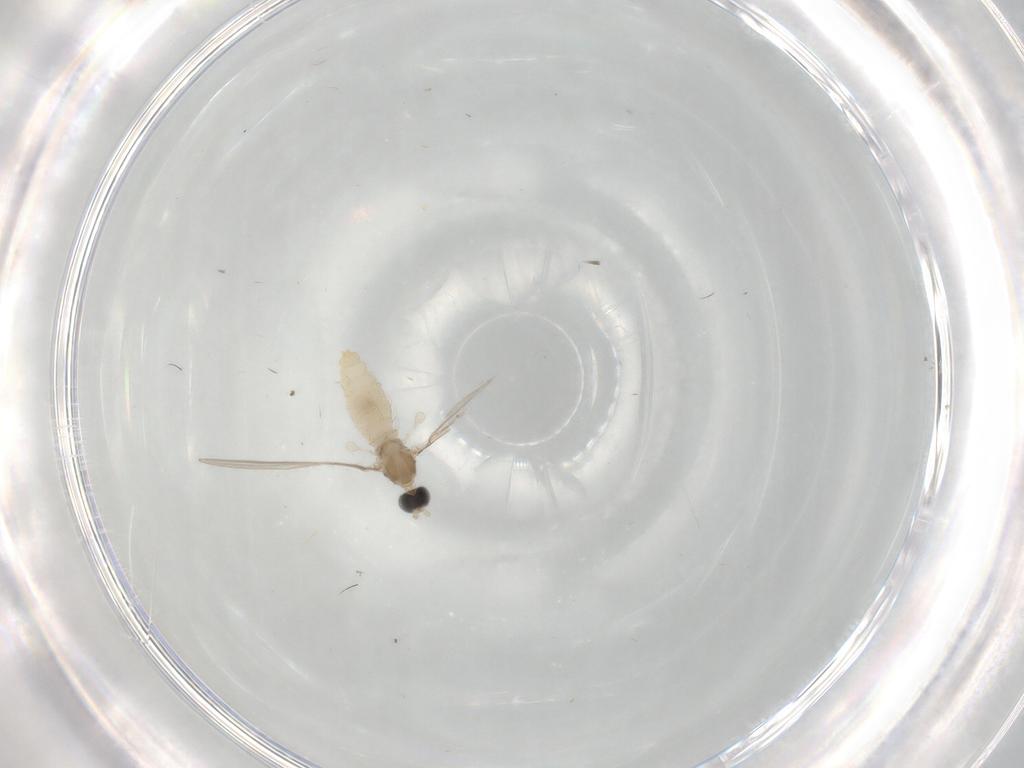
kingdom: Animalia
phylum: Arthropoda
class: Insecta
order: Diptera
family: Cecidomyiidae
